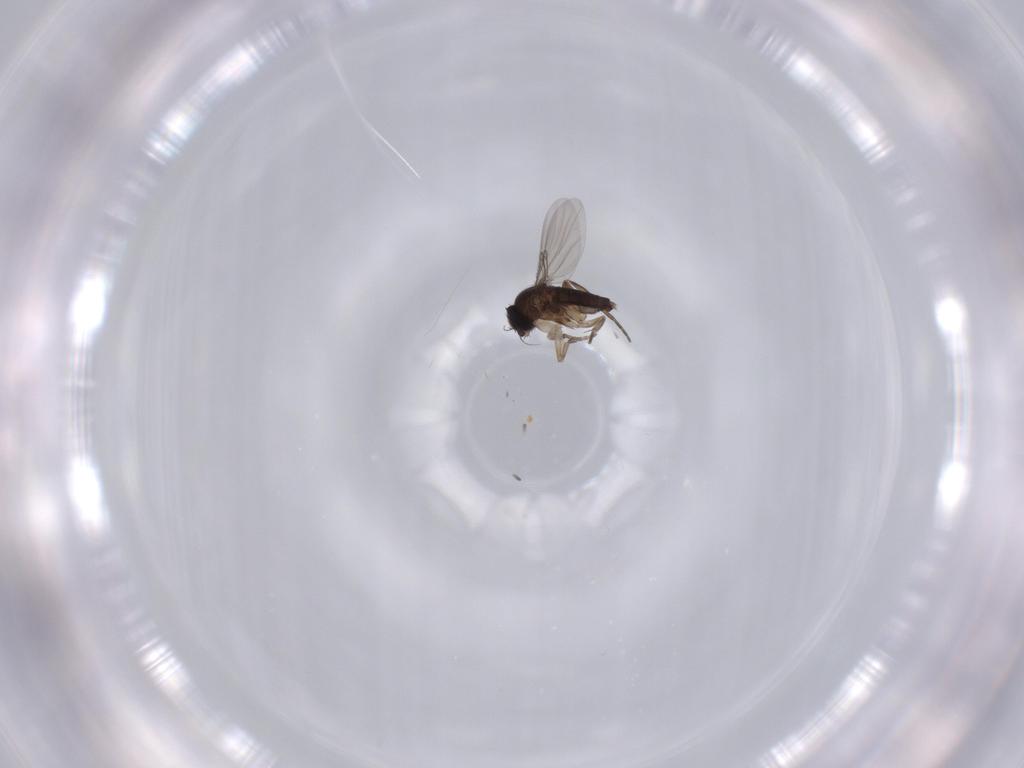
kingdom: Animalia
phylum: Arthropoda
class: Insecta
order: Diptera
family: Phoridae
